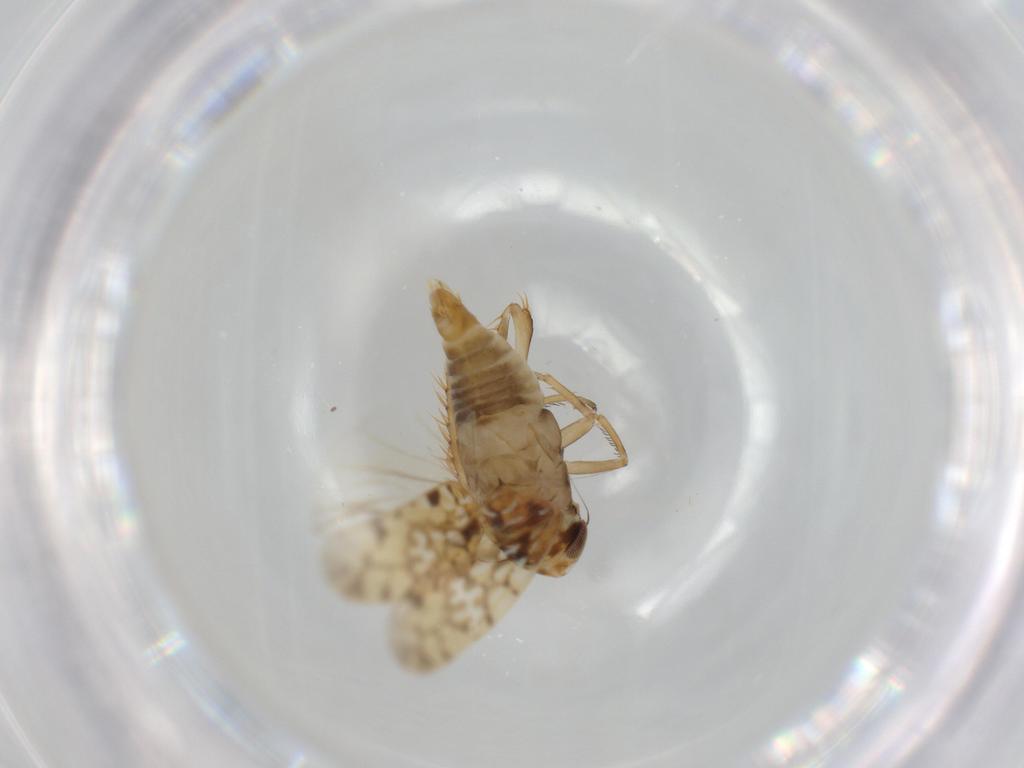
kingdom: Animalia
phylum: Arthropoda
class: Insecta
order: Hemiptera
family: Cicadellidae
